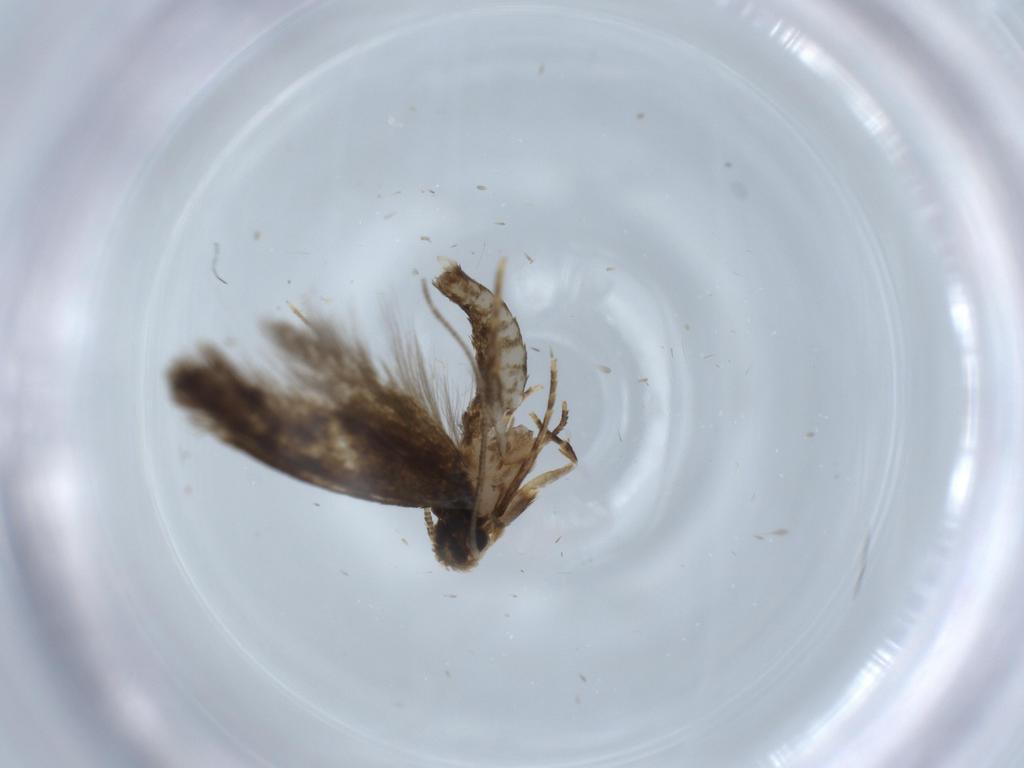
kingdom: Animalia
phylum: Arthropoda
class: Insecta
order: Lepidoptera
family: Tineidae
